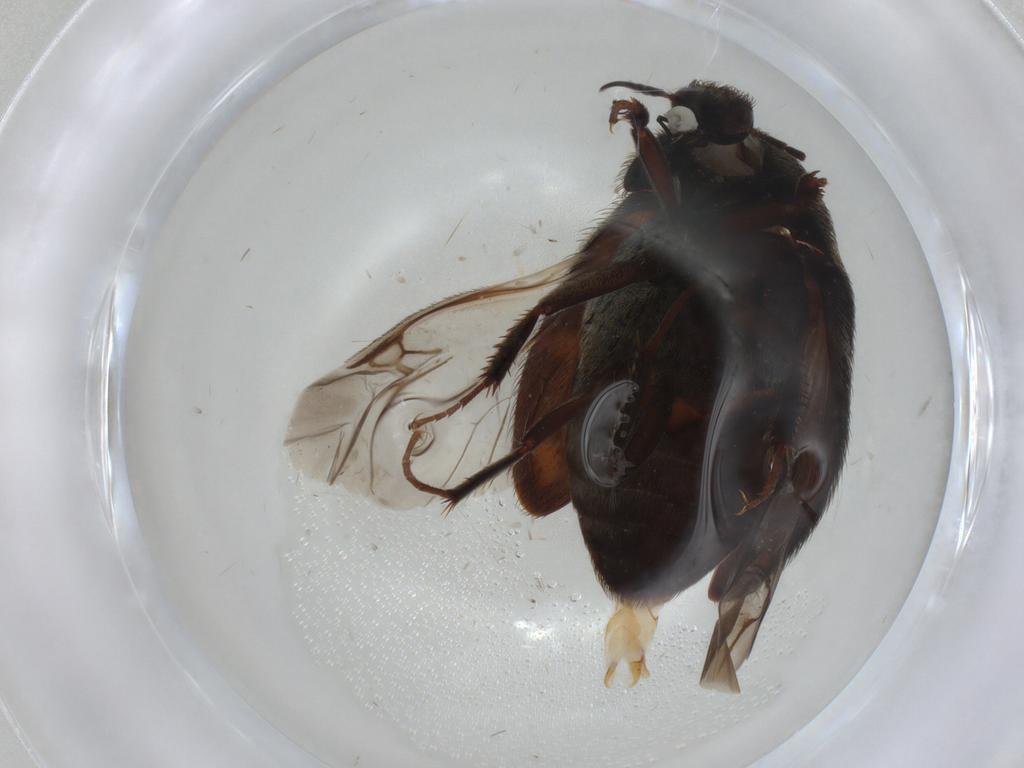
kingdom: Animalia
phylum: Arthropoda
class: Insecta
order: Coleoptera
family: Dermestidae
